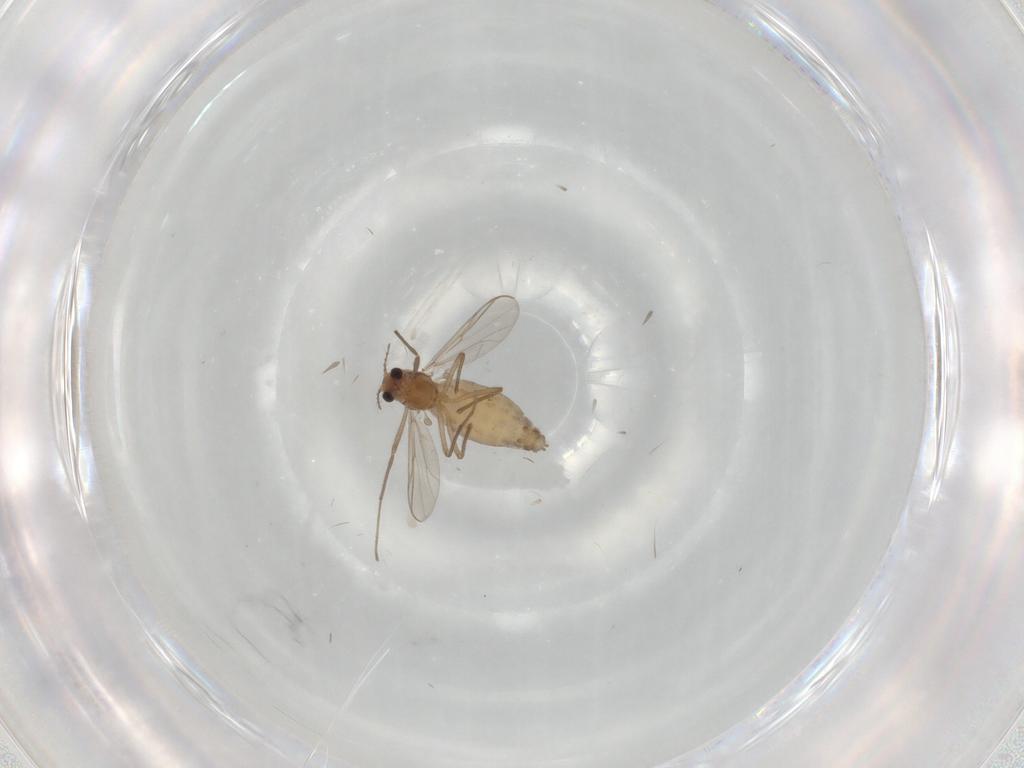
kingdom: Animalia
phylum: Arthropoda
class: Insecta
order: Diptera
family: Chironomidae
